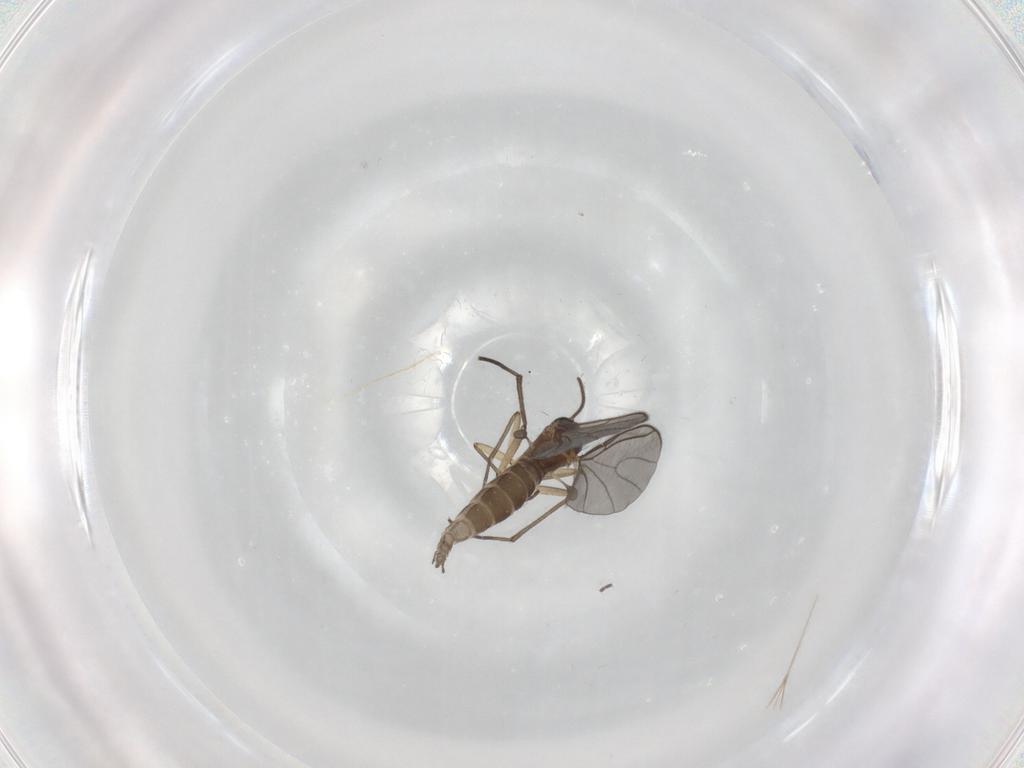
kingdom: Animalia
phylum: Arthropoda
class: Insecta
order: Diptera
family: Sciaridae
